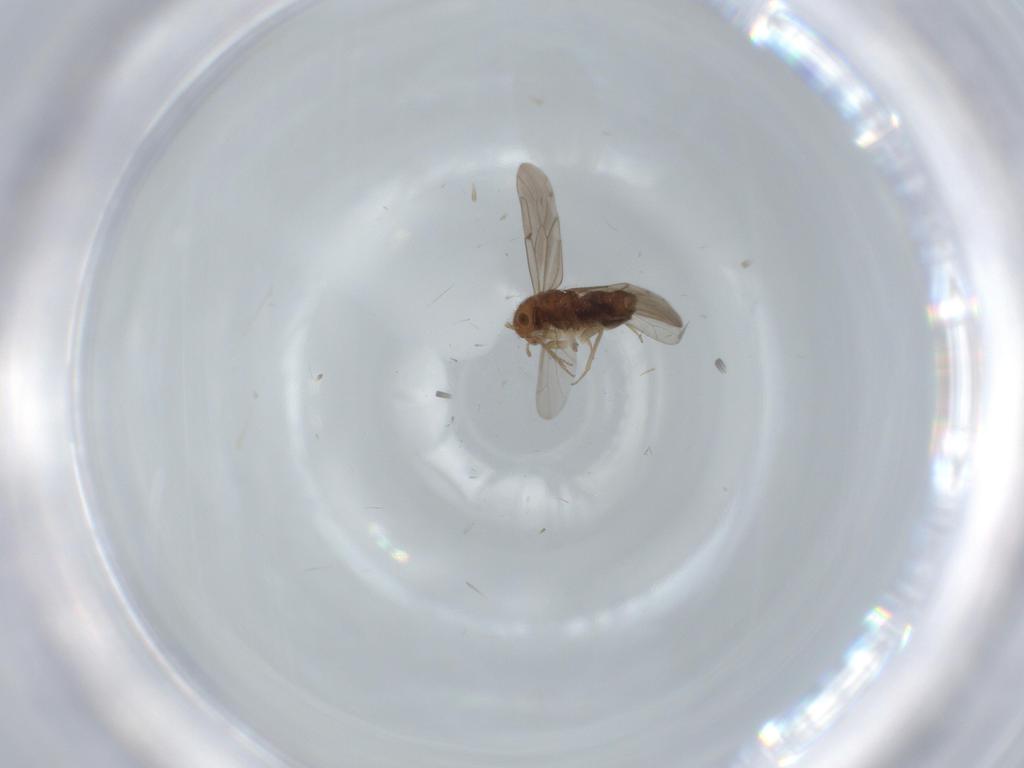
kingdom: Animalia
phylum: Arthropoda
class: Insecta
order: Psocodea
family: Ectopsocidae
